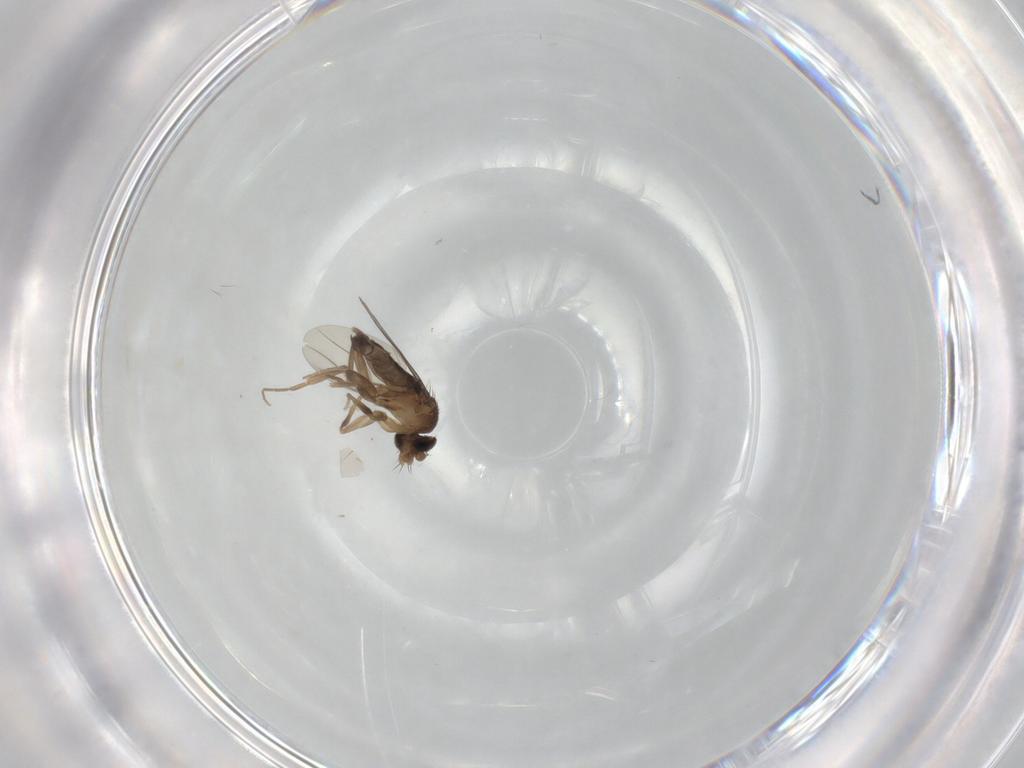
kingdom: Animalia
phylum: Arthropoda
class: Insecta
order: Diptera
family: Phoridae
